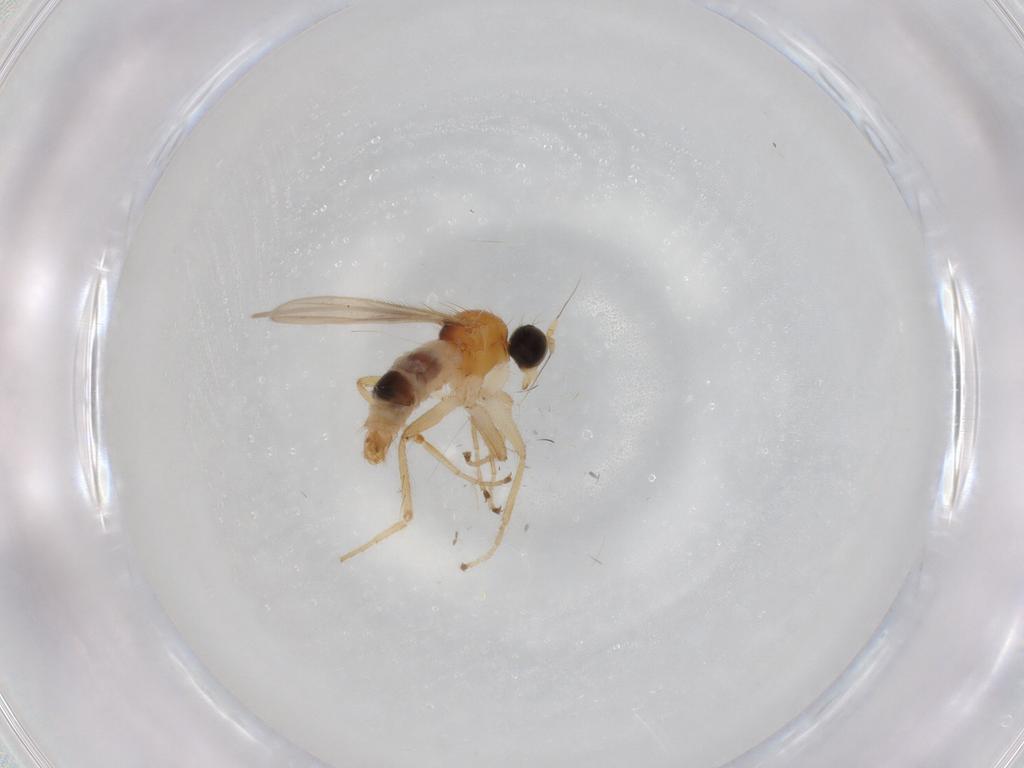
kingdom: Animalia
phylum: Arthropoda
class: Insecta
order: Diptera
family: Hybotidae
